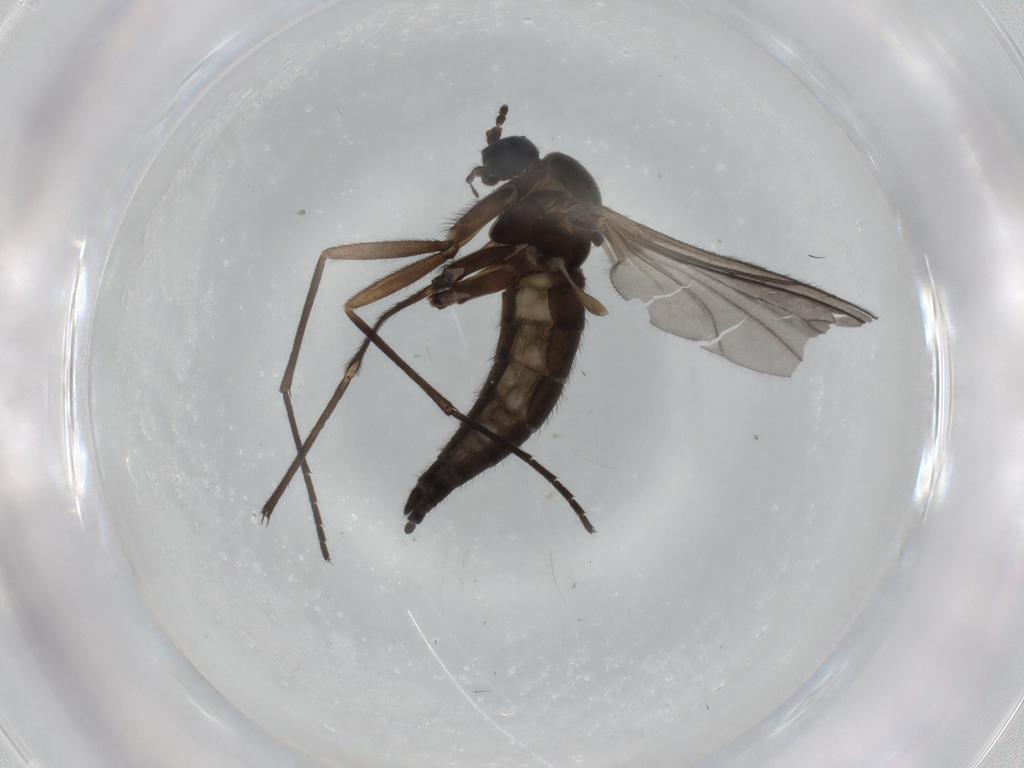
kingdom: Animalia
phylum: Arthropoda
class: Insecta
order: Diptera
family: Sciaridae
